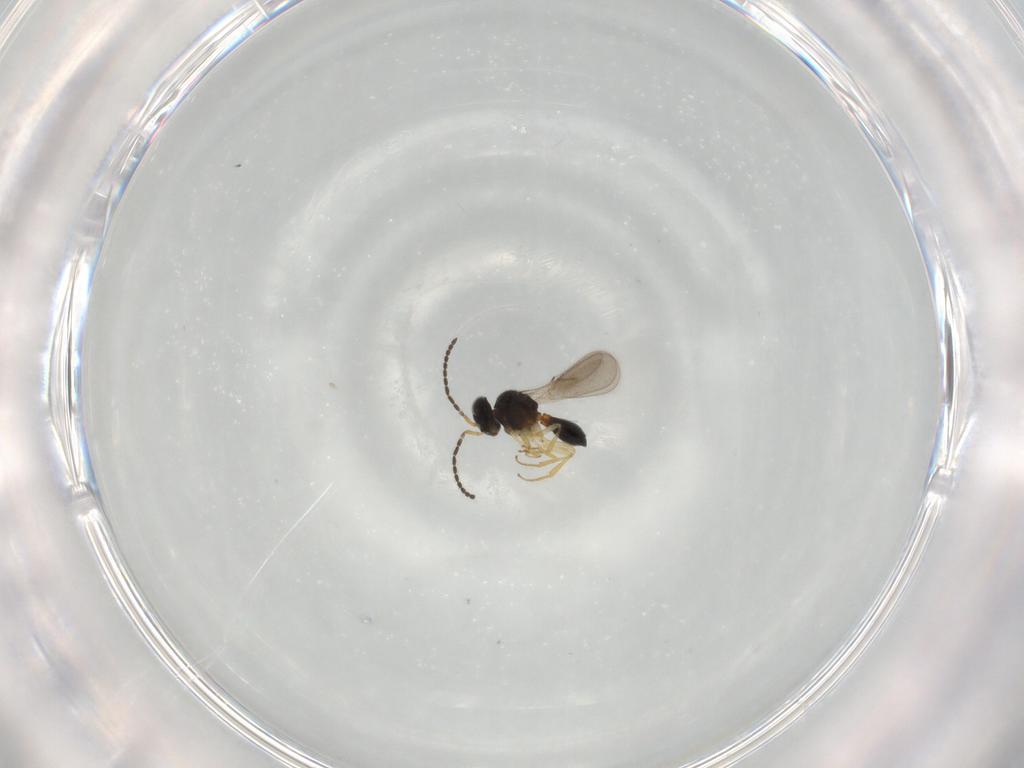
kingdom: Animalia
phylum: Arthropoda
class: Insecta
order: Hymenoptera
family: Scelionidae
